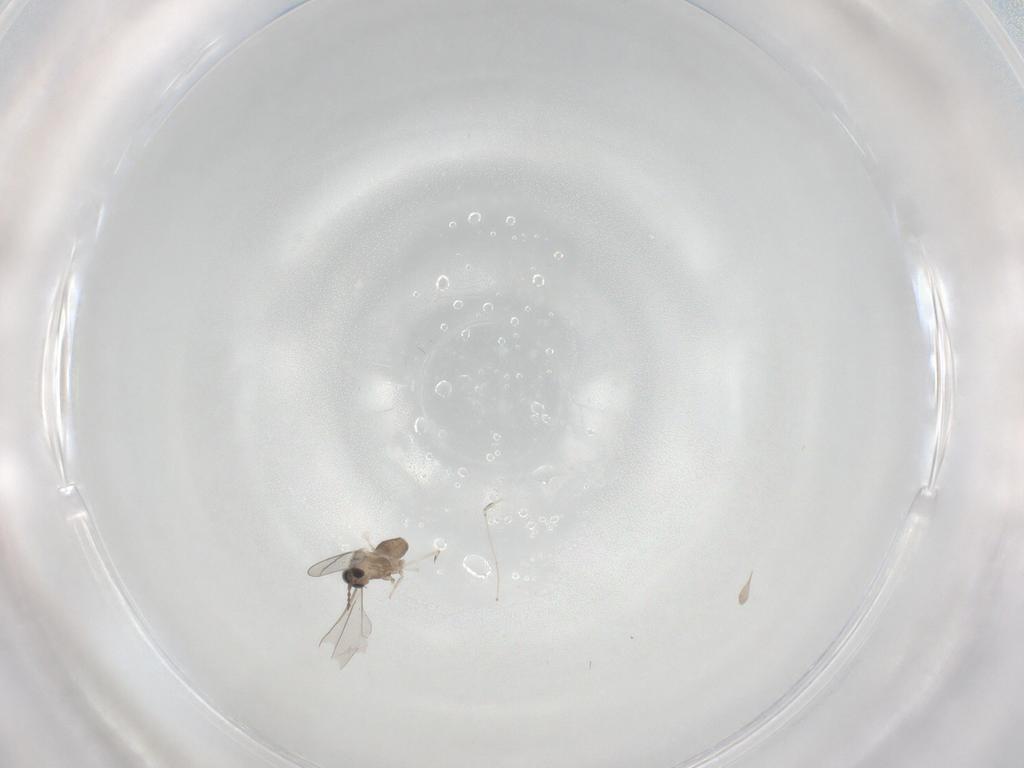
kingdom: Animalia
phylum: Arthropoda
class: Insecta
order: Diptera
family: Cecidomyiidae
